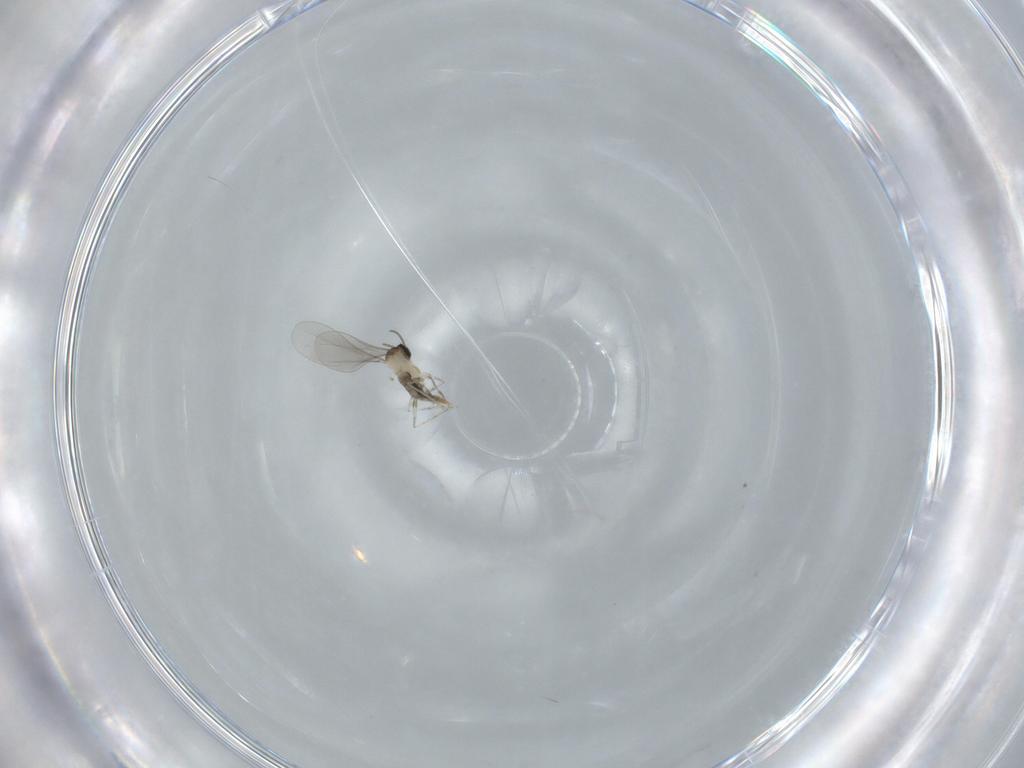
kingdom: Animalia
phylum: Arthropoda
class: Insecta
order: Diptera
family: Cecidomyiidae
